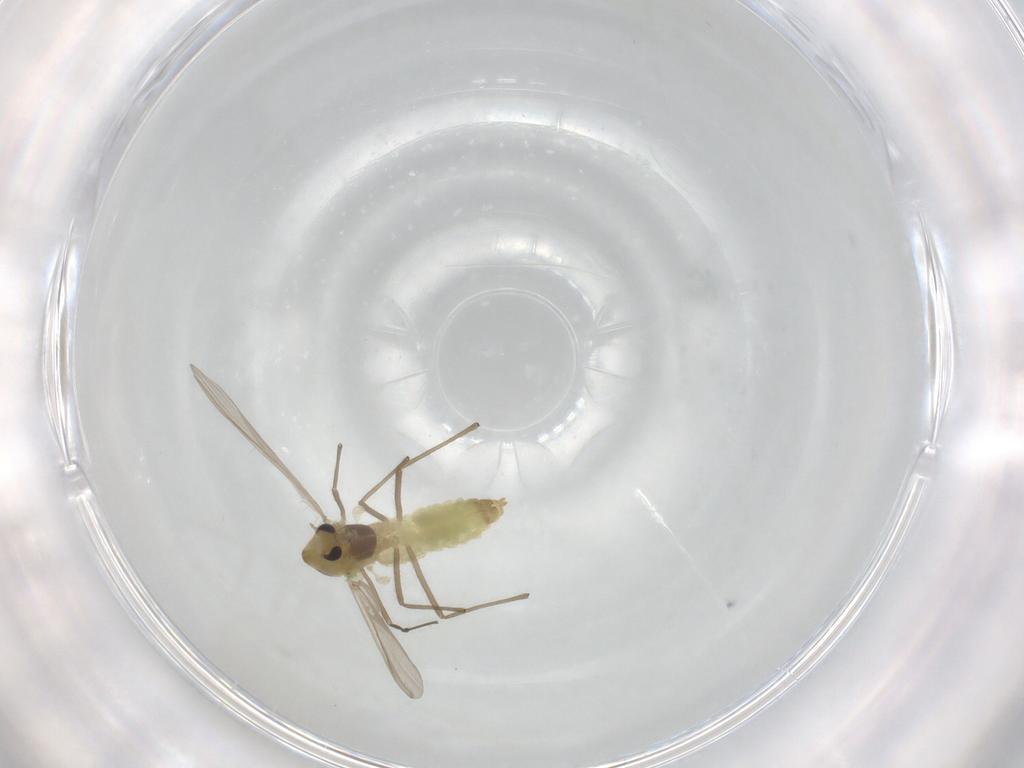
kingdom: Animalia
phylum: Arthropoda
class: Insecta
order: Diptera
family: Chironomidae
